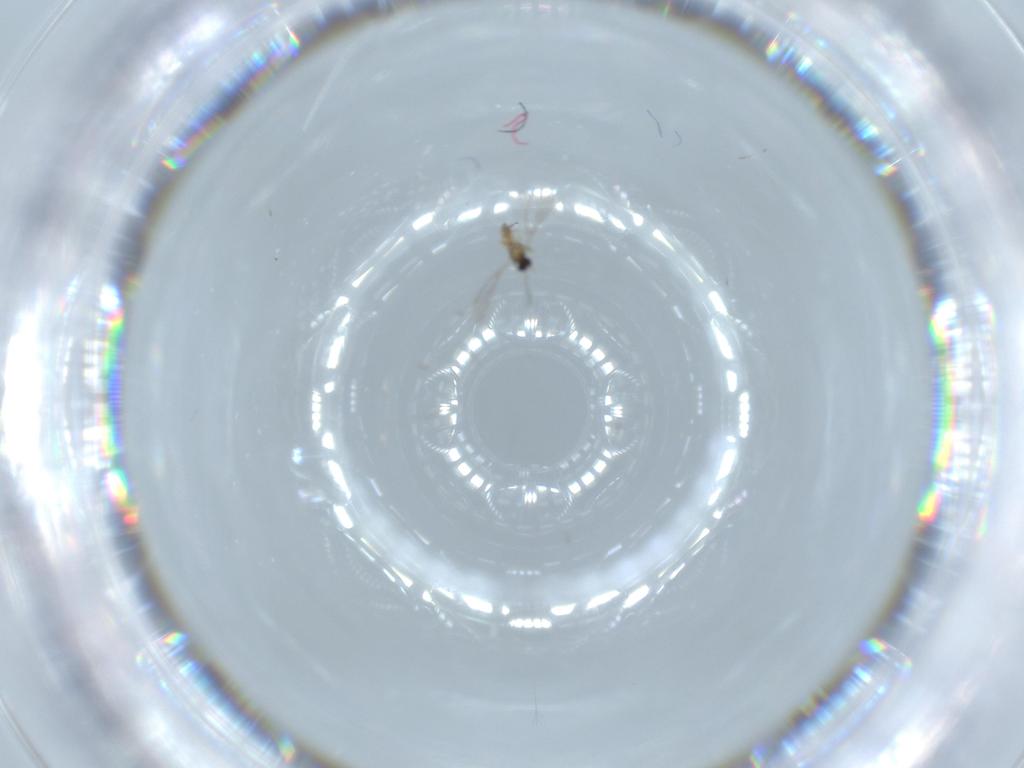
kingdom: Animalia
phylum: Arthropoda
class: Insecta
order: Hymenoptera
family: Mymaridae
